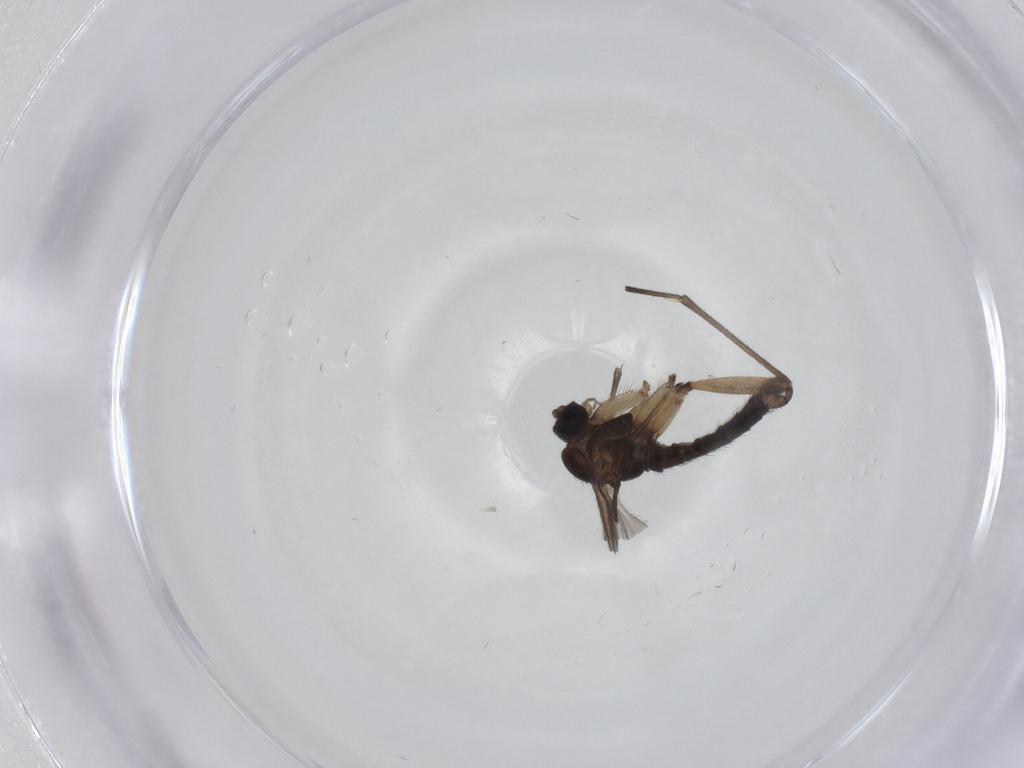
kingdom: Animalia
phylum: Arthropoda
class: Insecta
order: Diptera
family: Sciaridae
